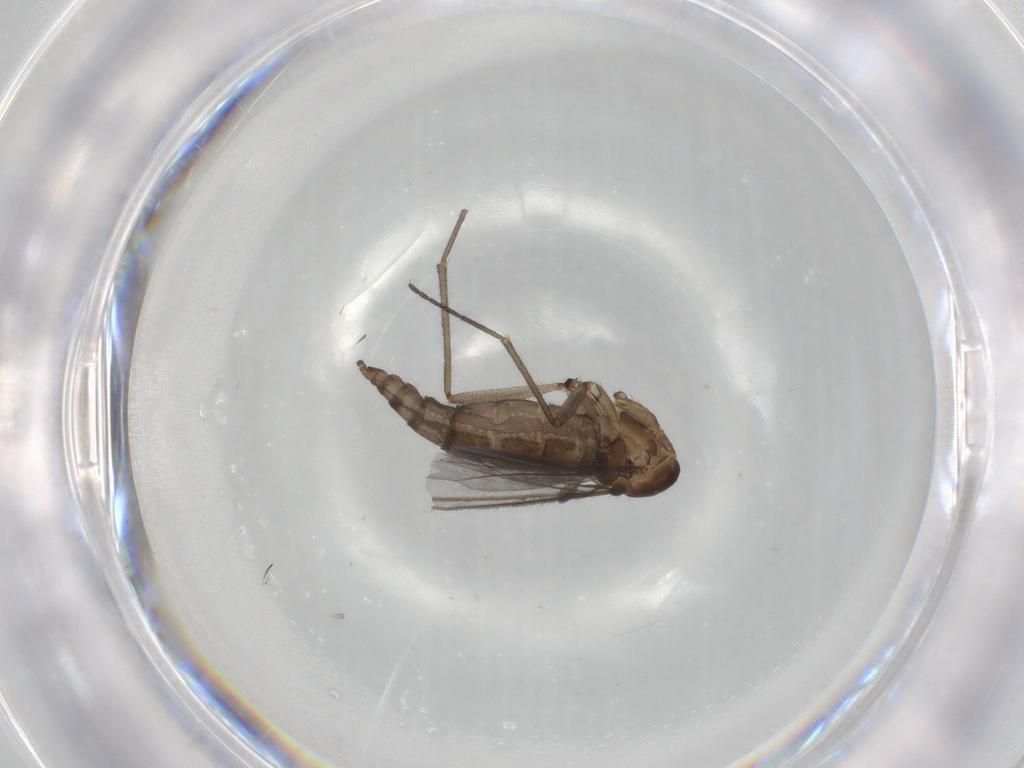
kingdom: Animalia
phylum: Arthropoda
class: Insecta
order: Diptera
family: Sciaridae
